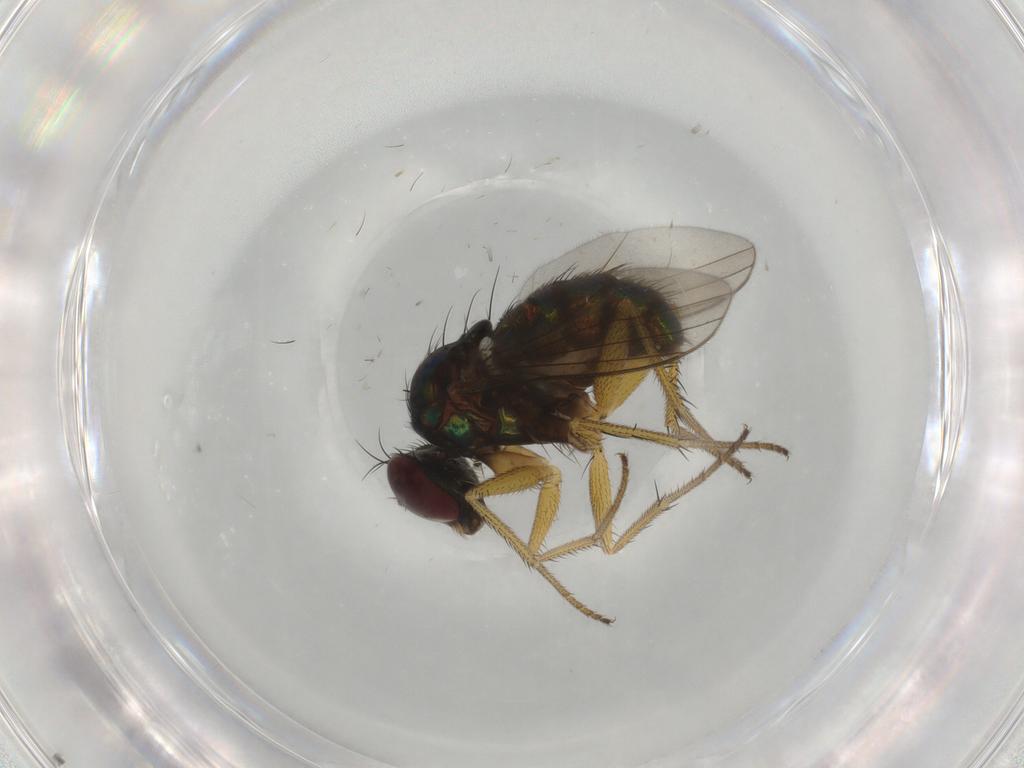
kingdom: Animalia
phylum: Arthropoda
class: Insecta
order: Diptera
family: Dolichopodidae
